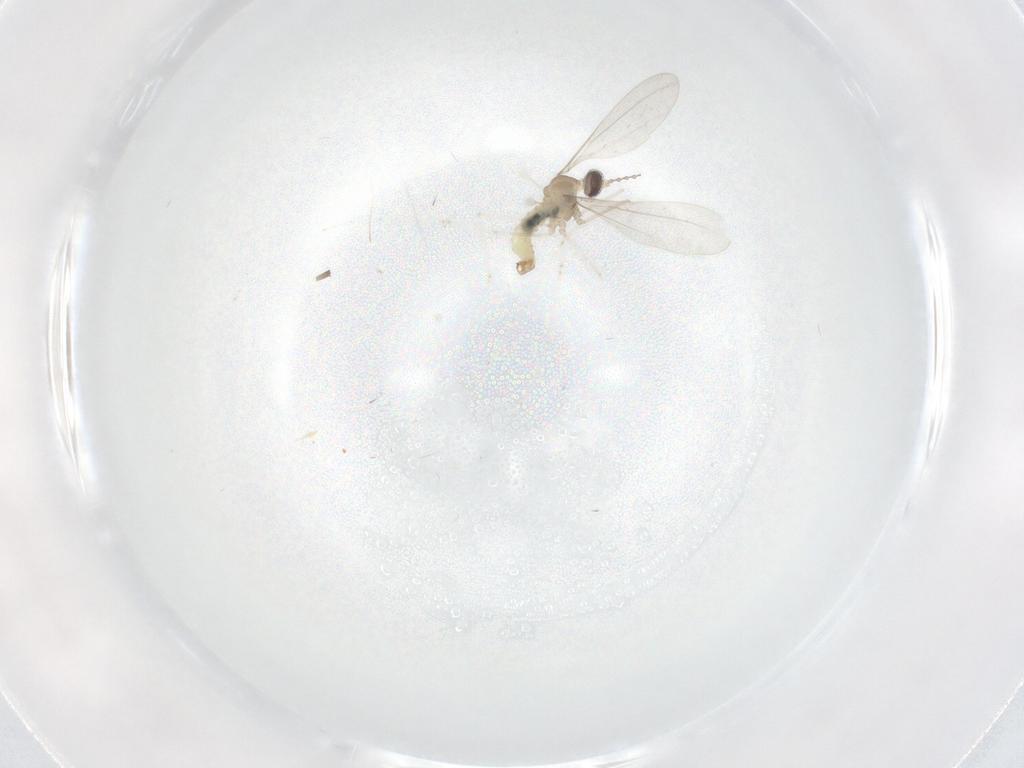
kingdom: Animalia
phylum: Arthropoda
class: Insecta
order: Diptera
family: Cecidomyiidae
